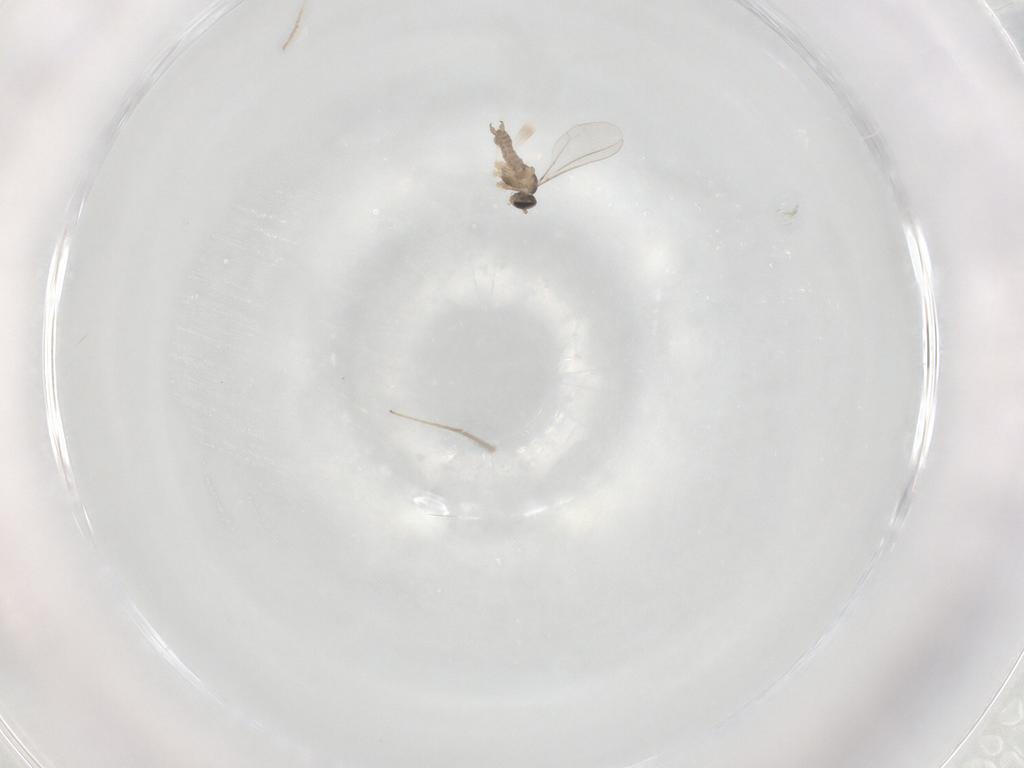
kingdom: Animalia
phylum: Arthropoda
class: Insecta
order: Diptera
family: Cecidomyiidae
